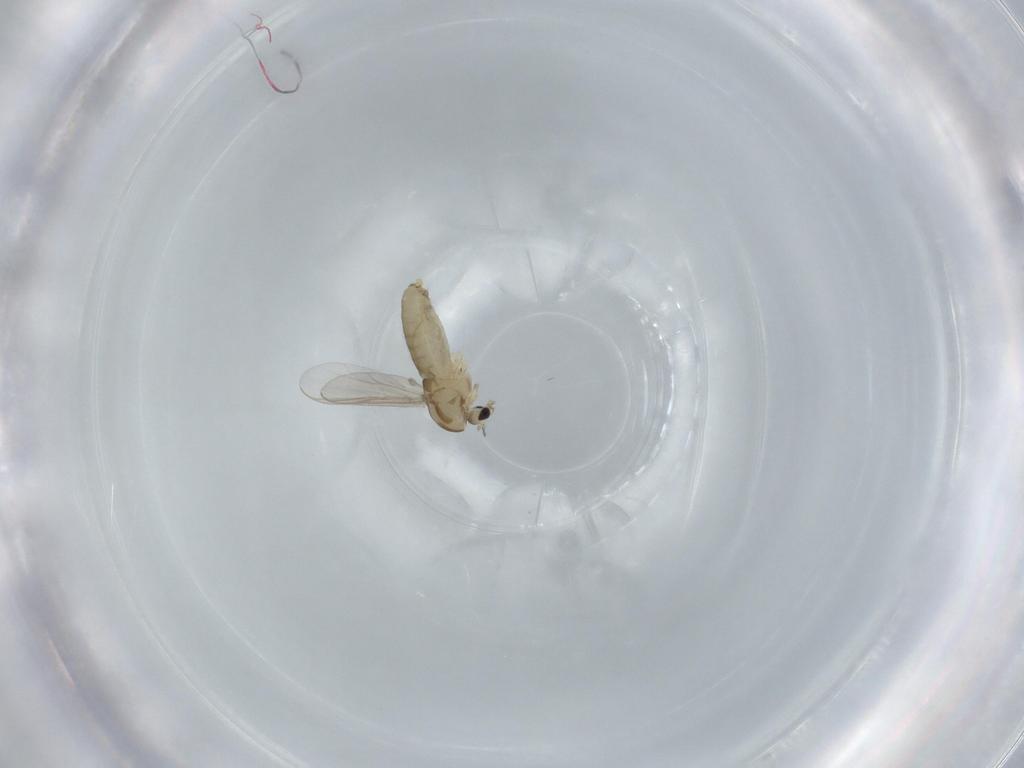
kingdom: Animalia
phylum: Arthropoda
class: Insecta
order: Diptera
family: Chironomidae
